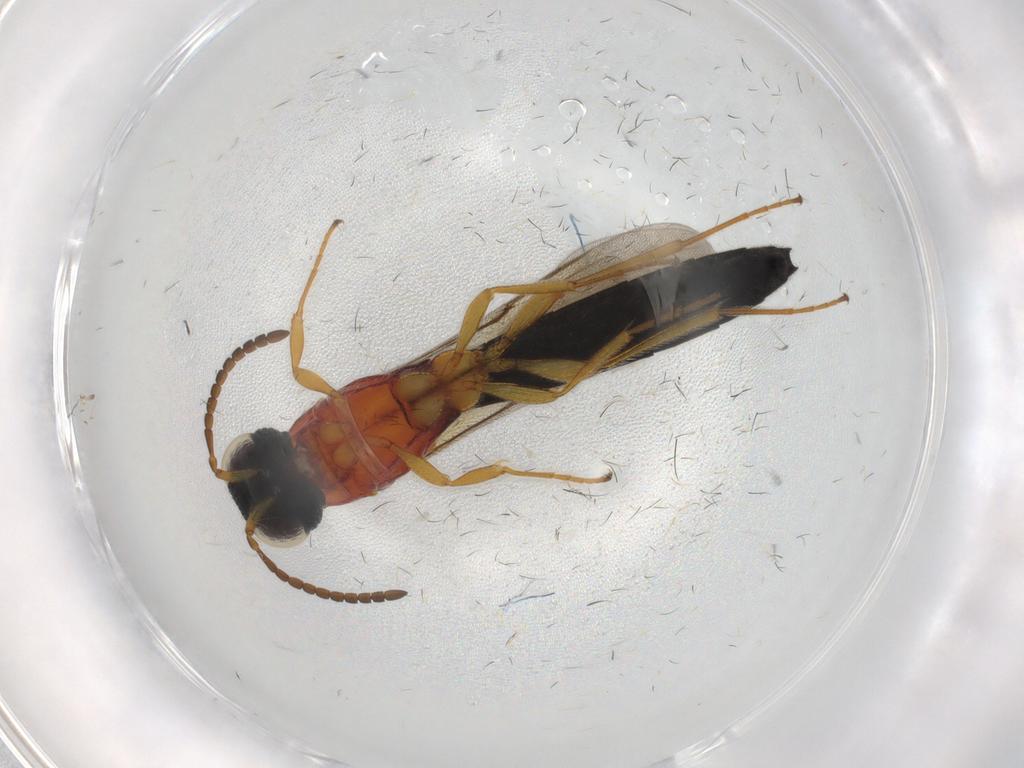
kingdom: Animalia
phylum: Arthropoda
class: Insecta
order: Hymenoptera
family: Scelionidae
